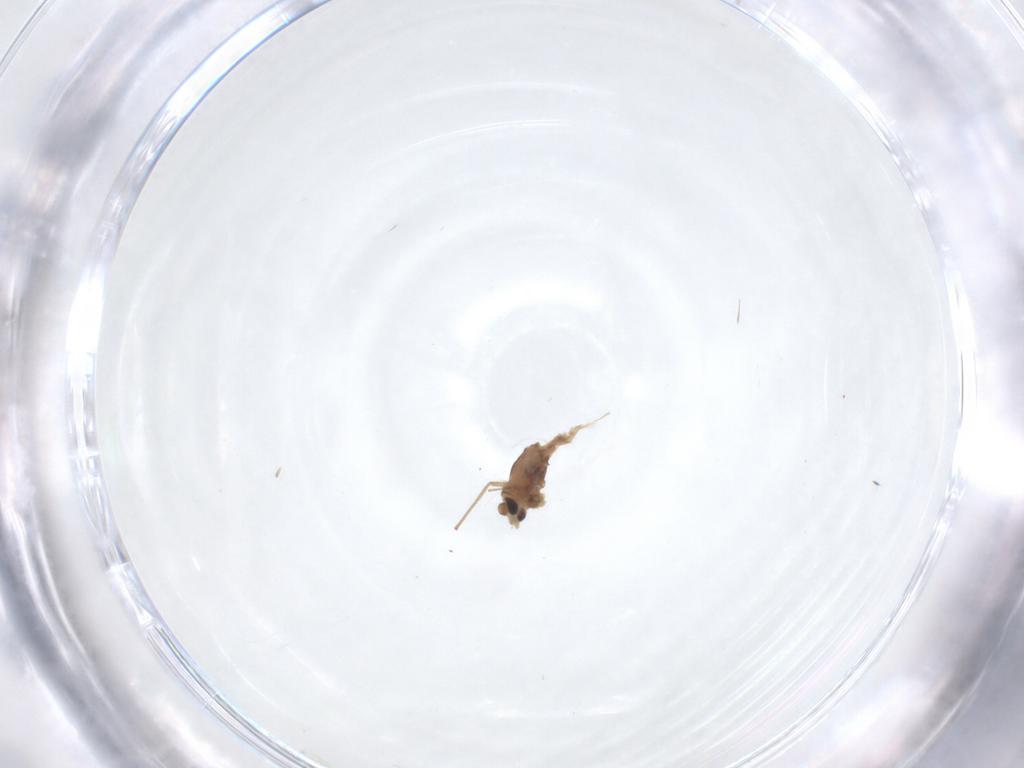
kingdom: Animalia
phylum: Arthropoda
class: Insecta
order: Diptera
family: Chironomidae
